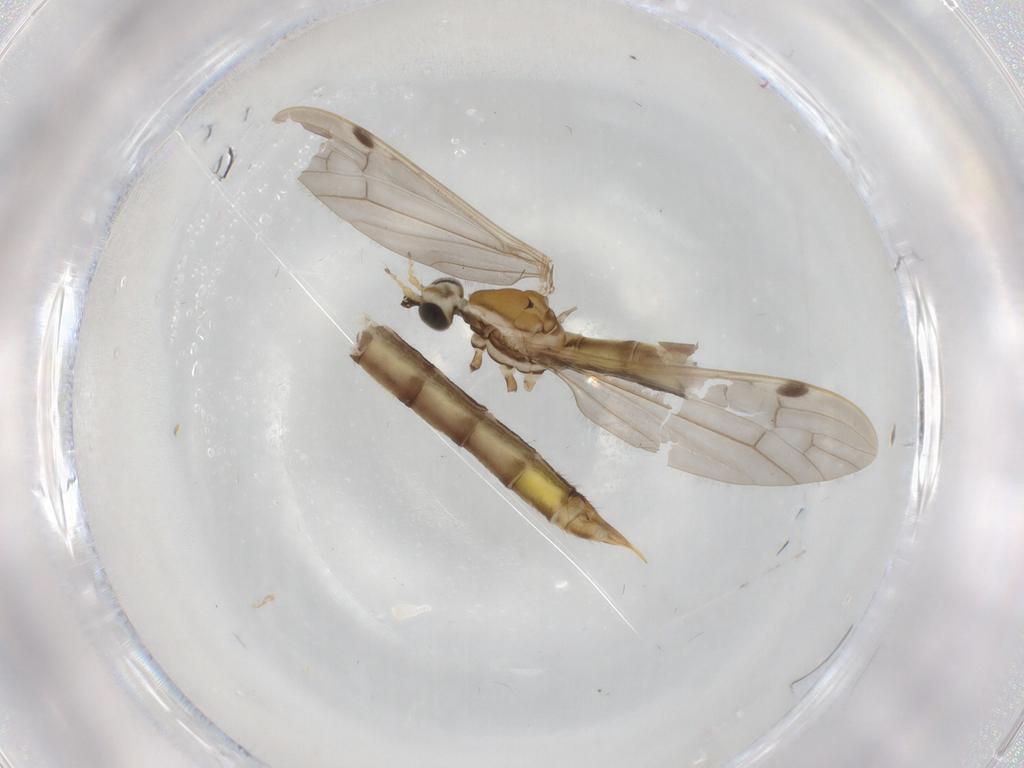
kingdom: Animalia
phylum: Arthropoda
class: Insecta
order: Diptera
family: Limoniidae
